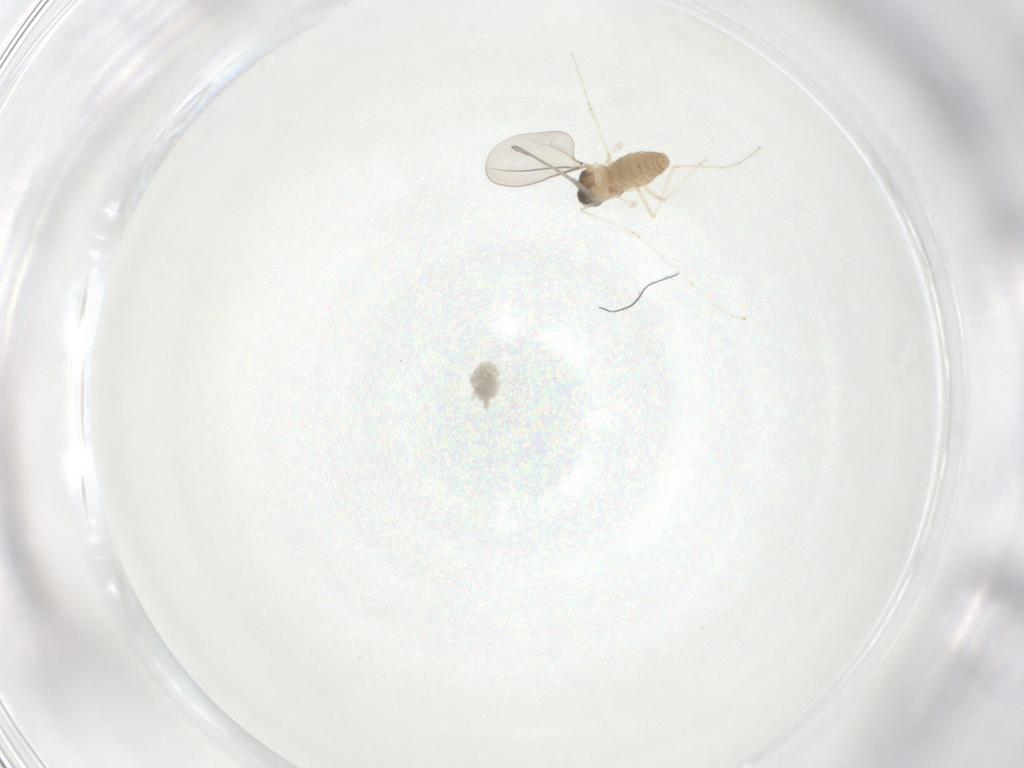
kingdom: Animalia
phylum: Arthropoda
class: Insecta
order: Diptera
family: Cecidomyiidae
